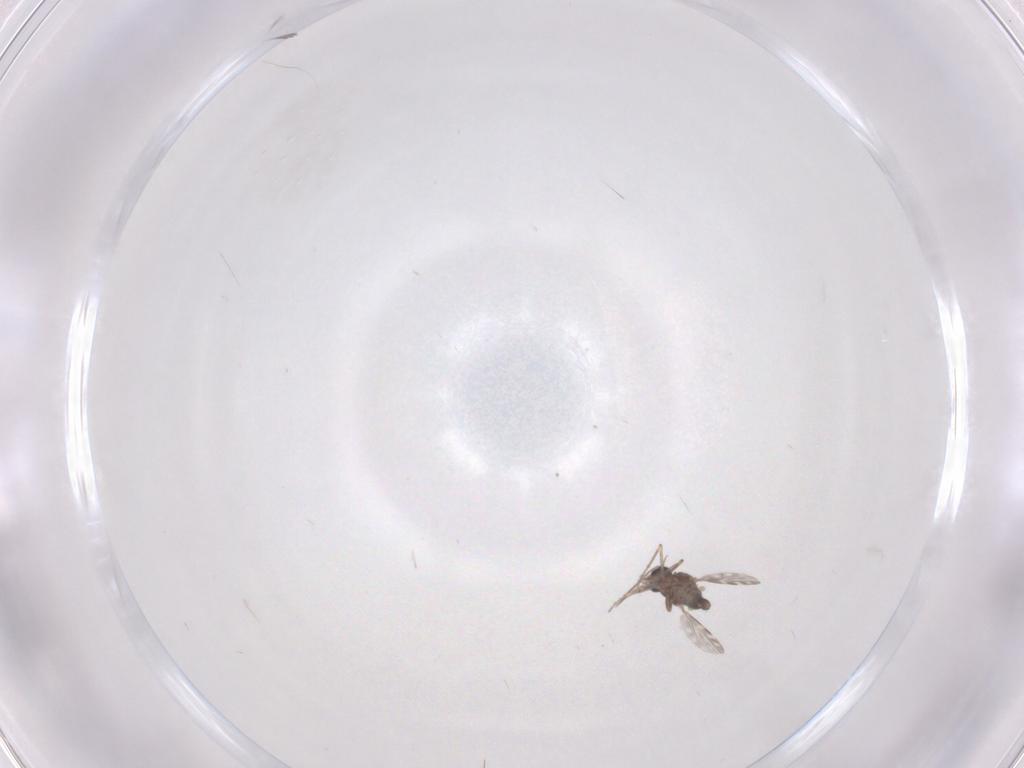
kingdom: Animalia
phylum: Arthropoda
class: Insecta
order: Diptera
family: Cecidomyiidae
